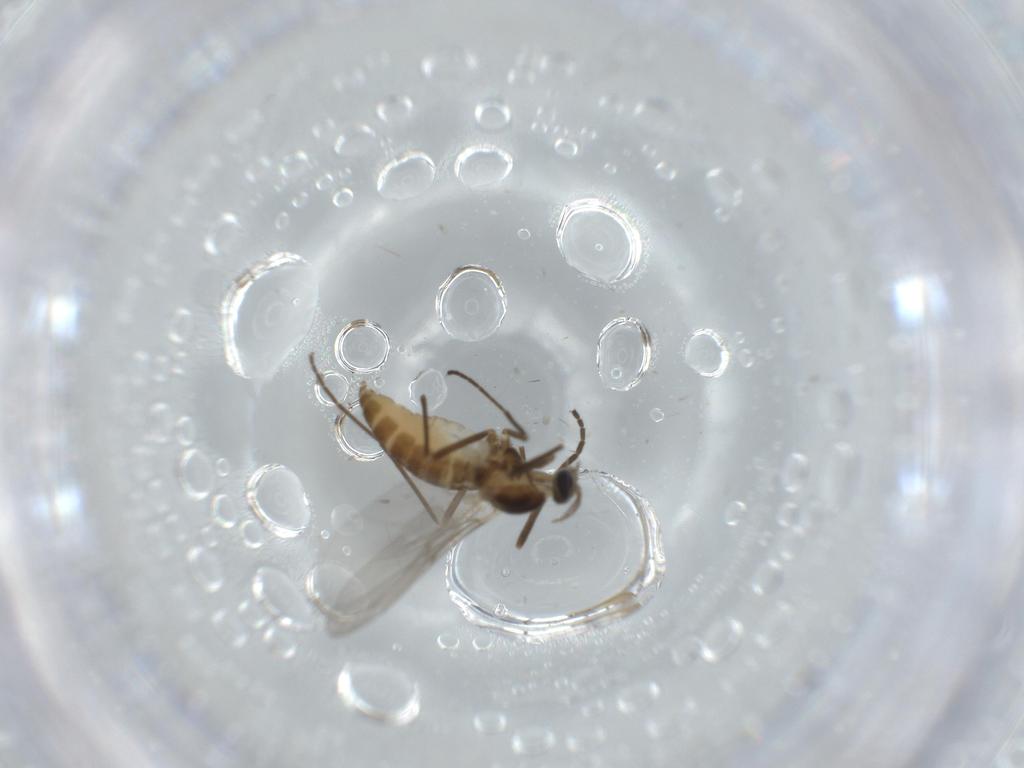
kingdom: Animalia
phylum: Arthropoda
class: Insecta
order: Diptera
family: Cecidomyiidae
